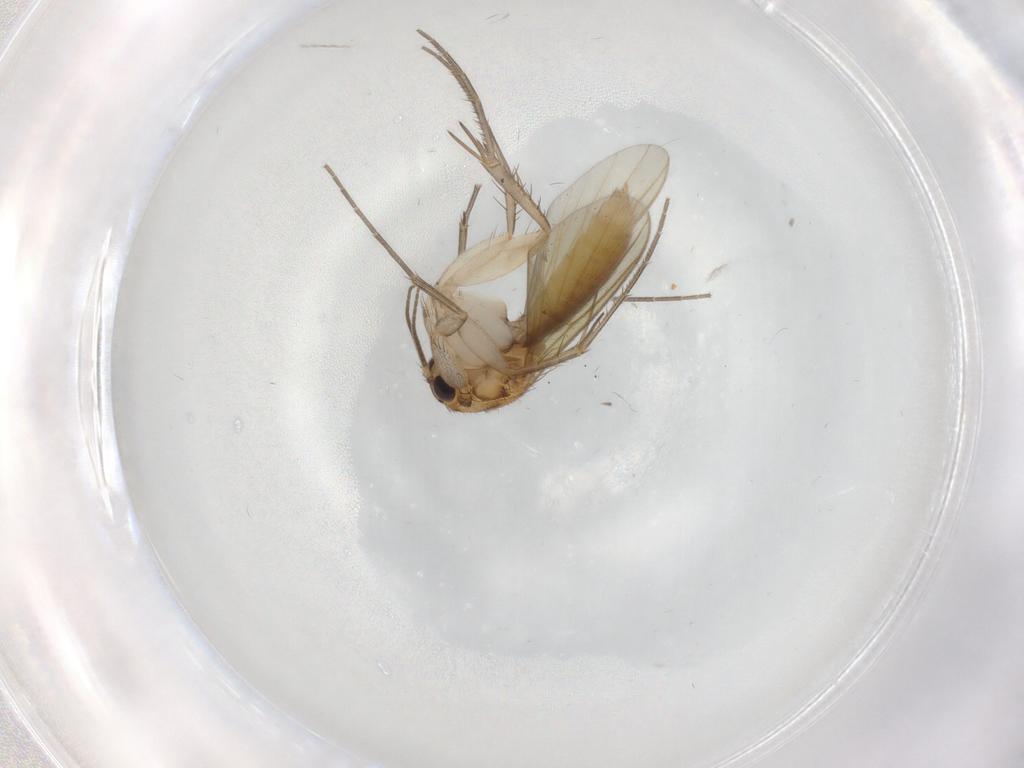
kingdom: Animalia
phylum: Arthropoda
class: Insecta
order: Diptera
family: Mycetophilidae
